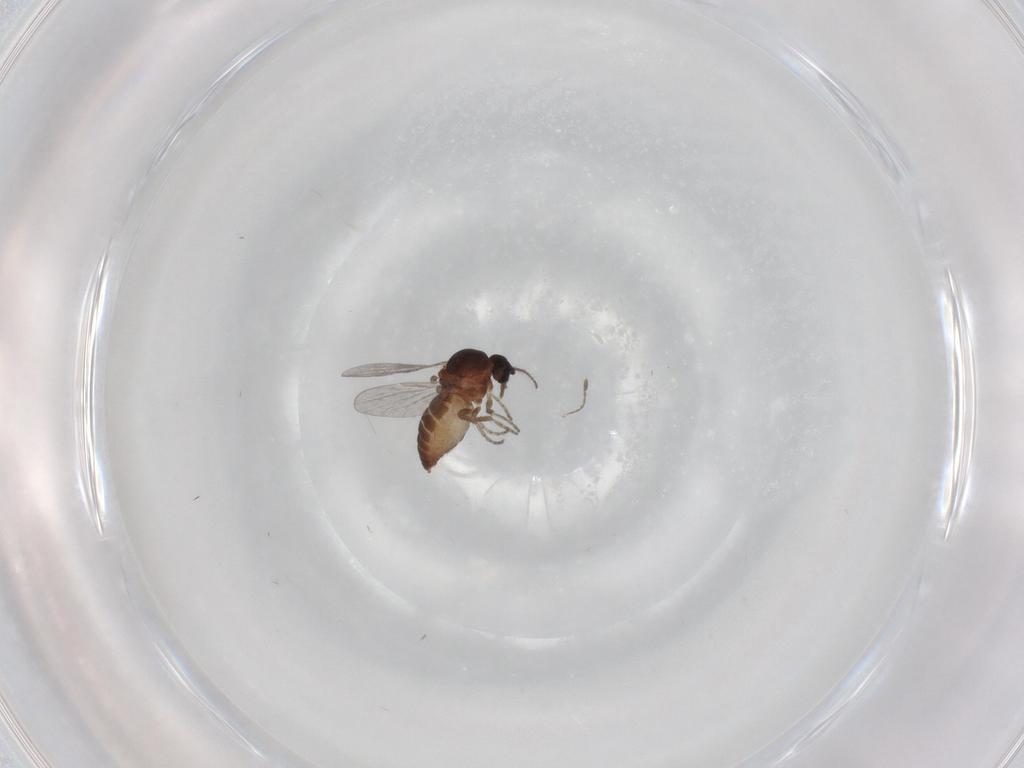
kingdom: Animalia
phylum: Arthropoda
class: Insecta
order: Diptera
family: Ceratopogonidae
